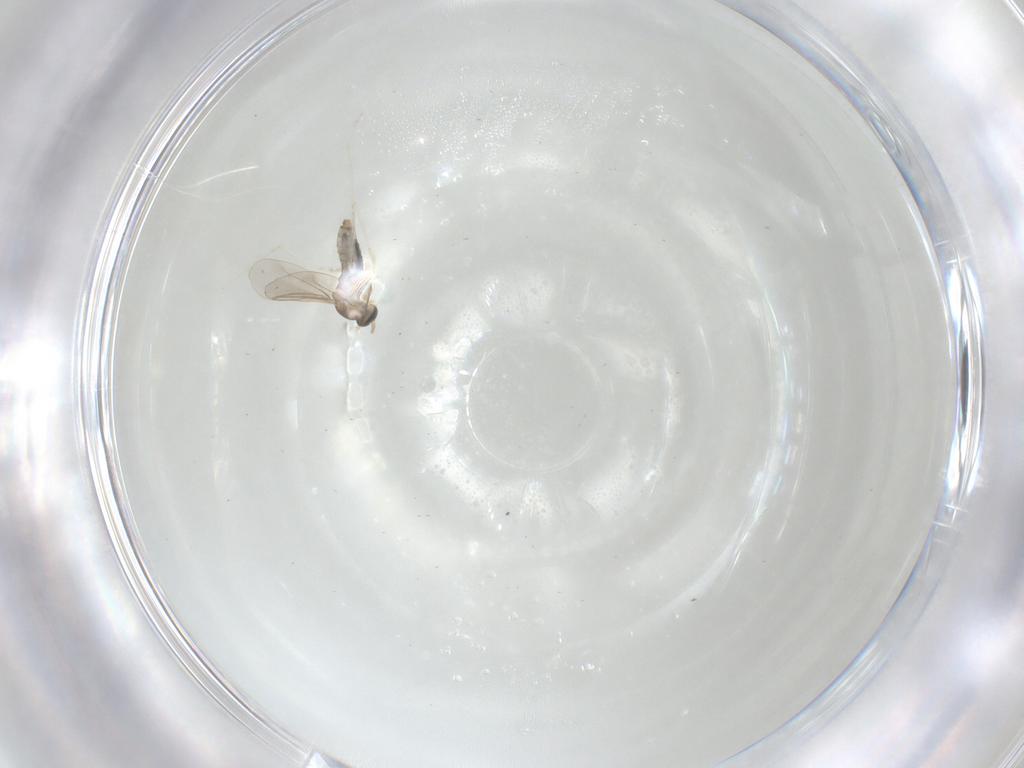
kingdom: Animalia
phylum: Arthropoda
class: Insecta
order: Diptera
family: Cecidomyiidae
